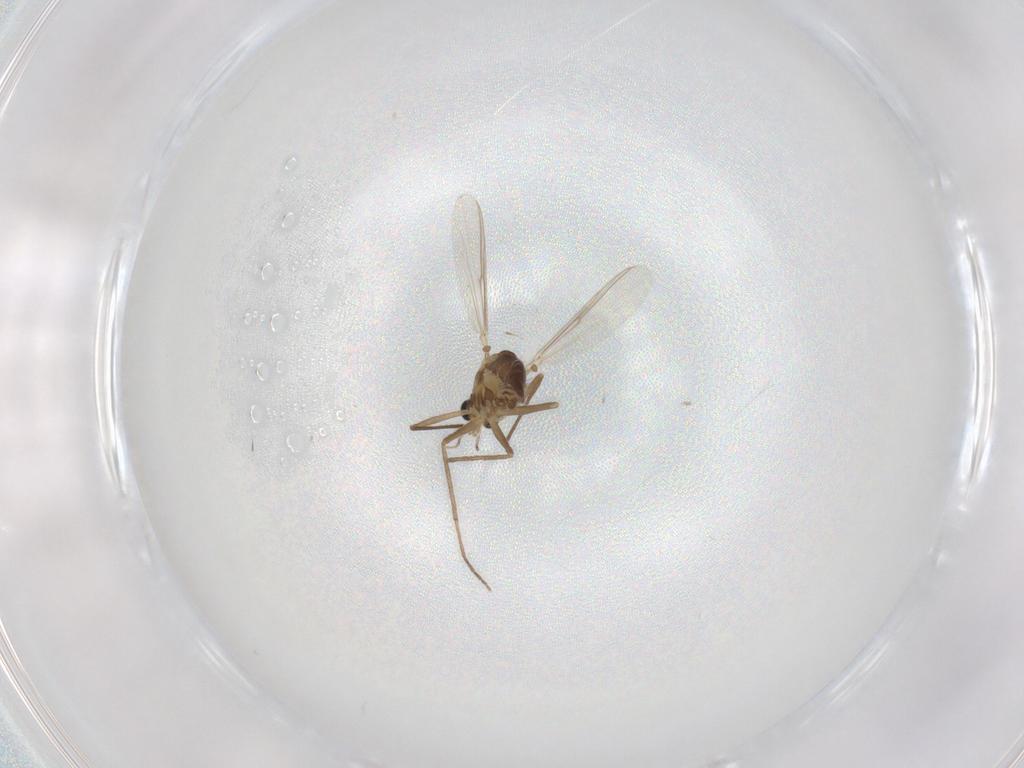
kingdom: Animalia
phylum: Arthropoda
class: Insecta
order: Diptera
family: Chironomidae
